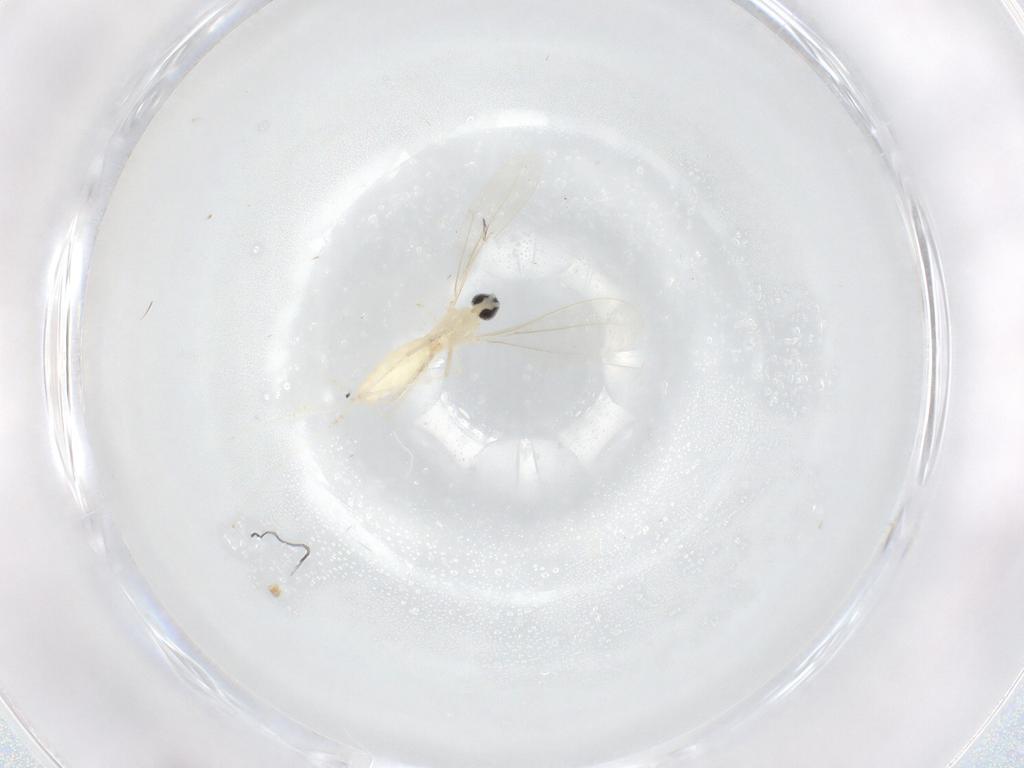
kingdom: Animalia
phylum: Arthropoda
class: Insecta
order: Diptera
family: Cecidomyiidae
